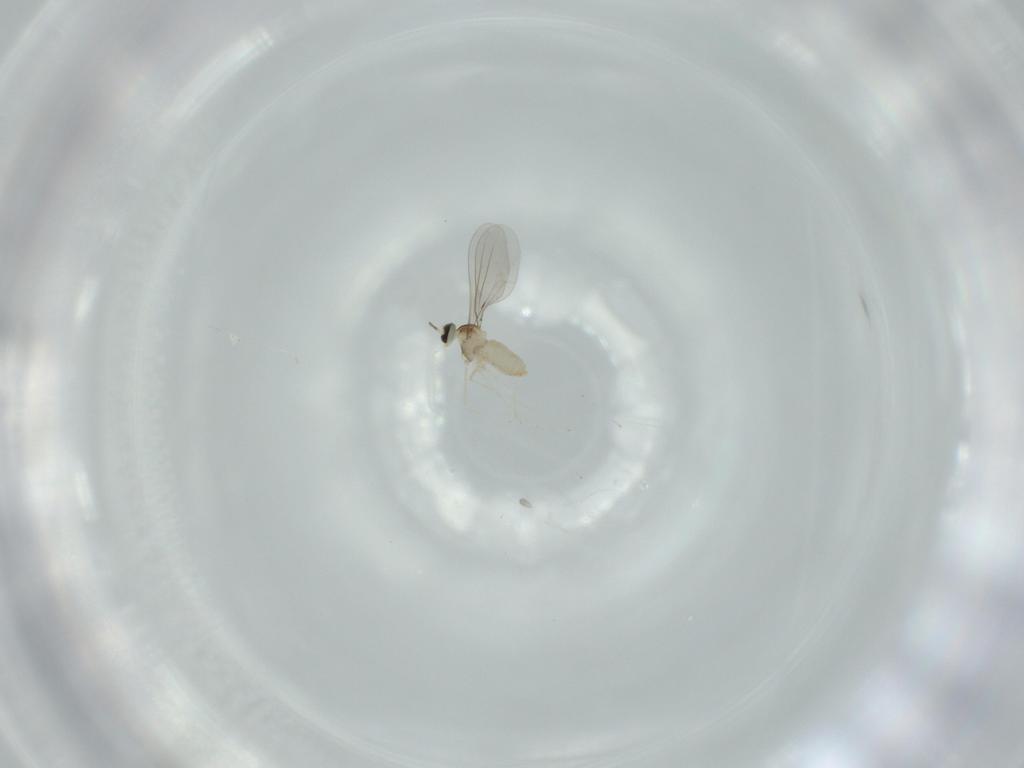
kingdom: Animalia
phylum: Arthropoda
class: Insecta
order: Diptera
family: Cecidomyiidae
